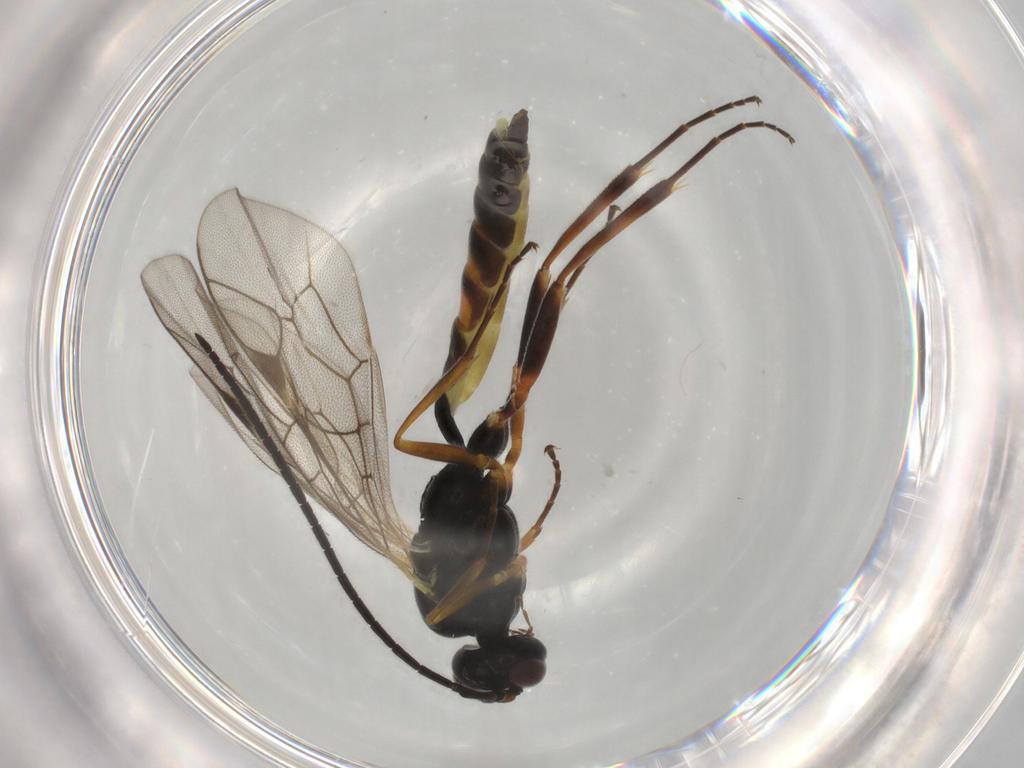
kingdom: Animalia
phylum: Arthropoda
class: Insecta
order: Hymenoptera
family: Ichneumonidae
